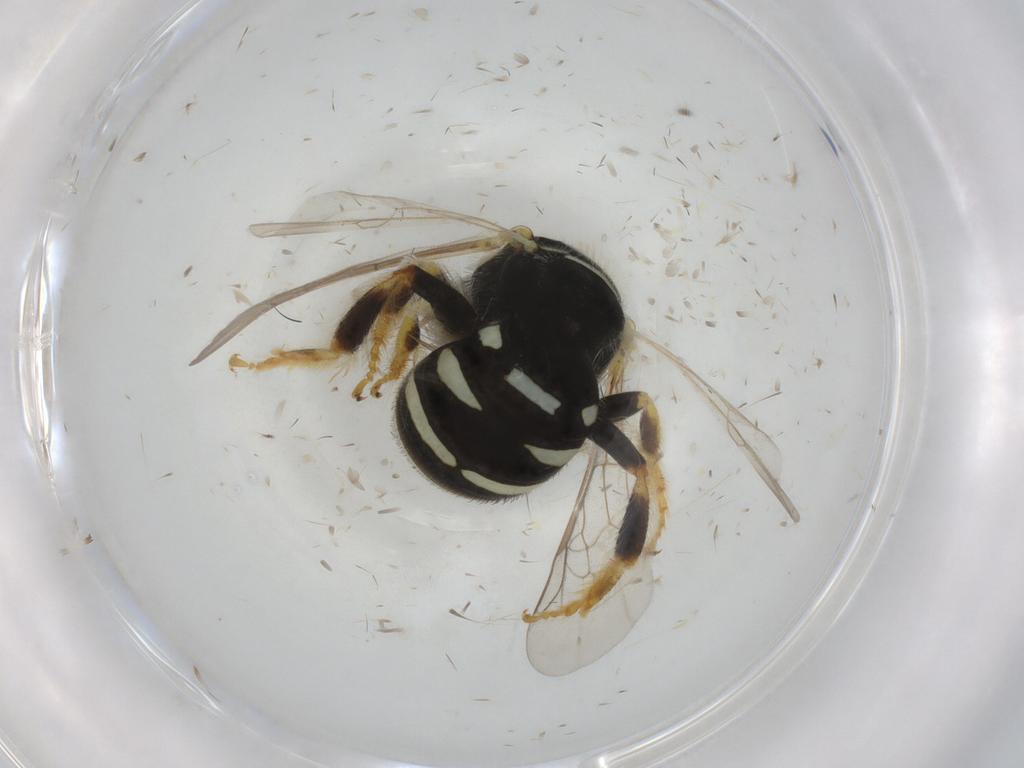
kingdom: Animalia
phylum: Arthropoda
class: Insecta
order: Hymenoptera
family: Halictidae
